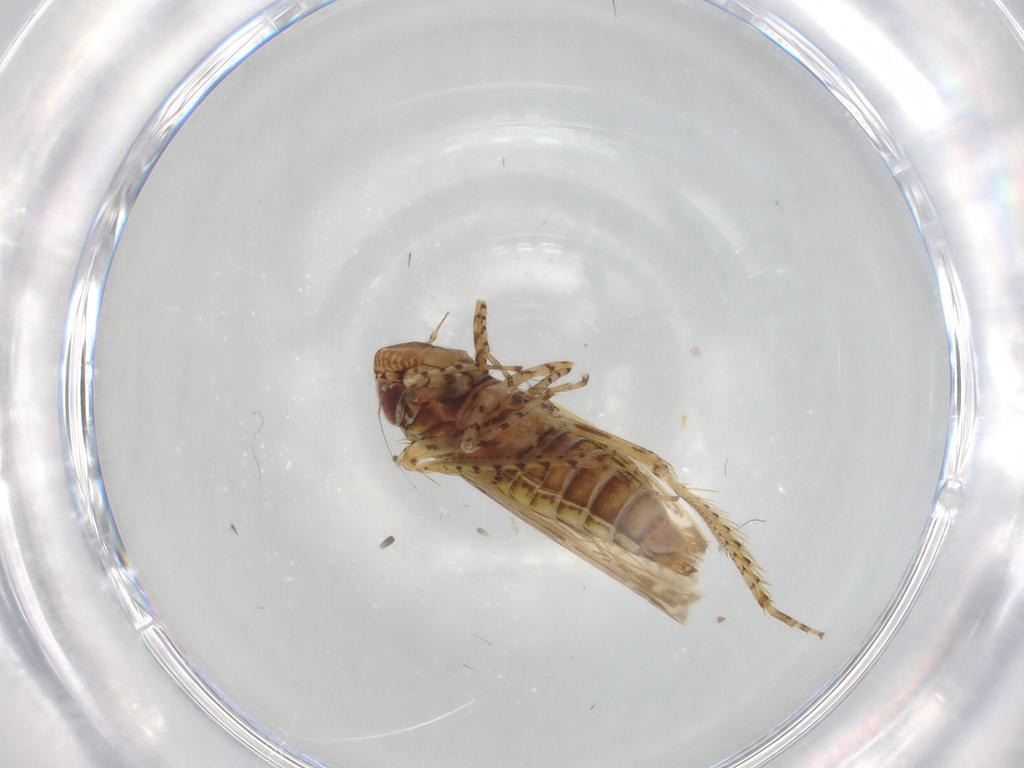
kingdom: Animalia
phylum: Arthropoda
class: Insecta
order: Hemiptera
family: Cicadellidae
